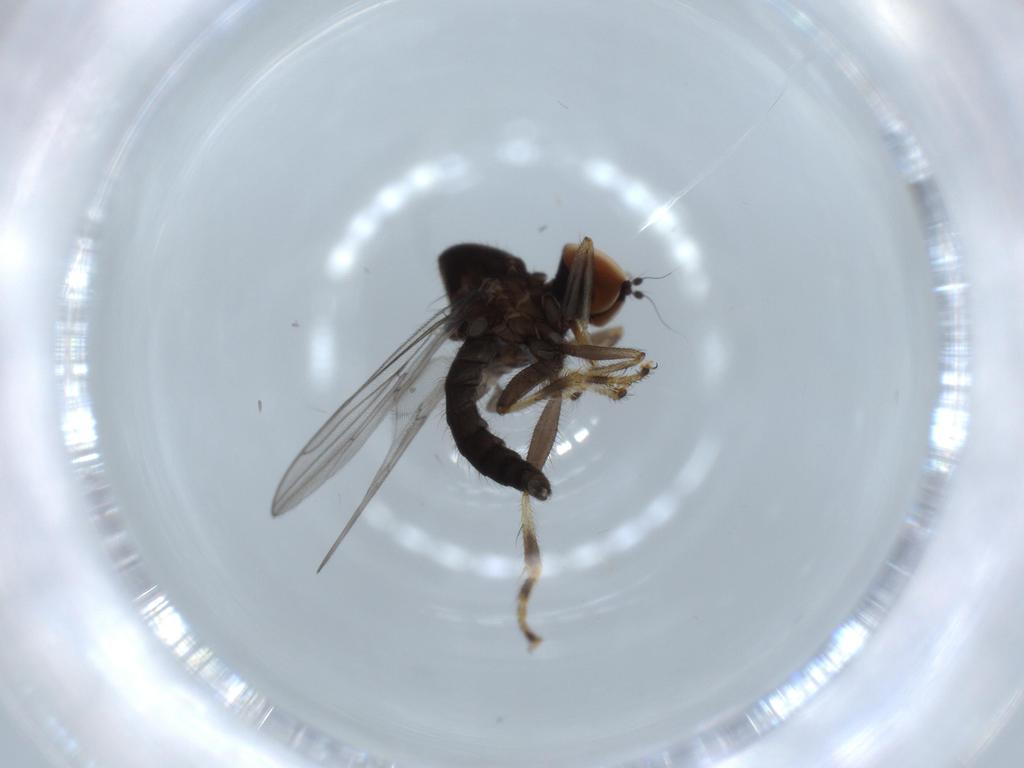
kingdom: Animalia
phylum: Arthropoda
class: Insecta
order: Diptera
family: Hybotidae
